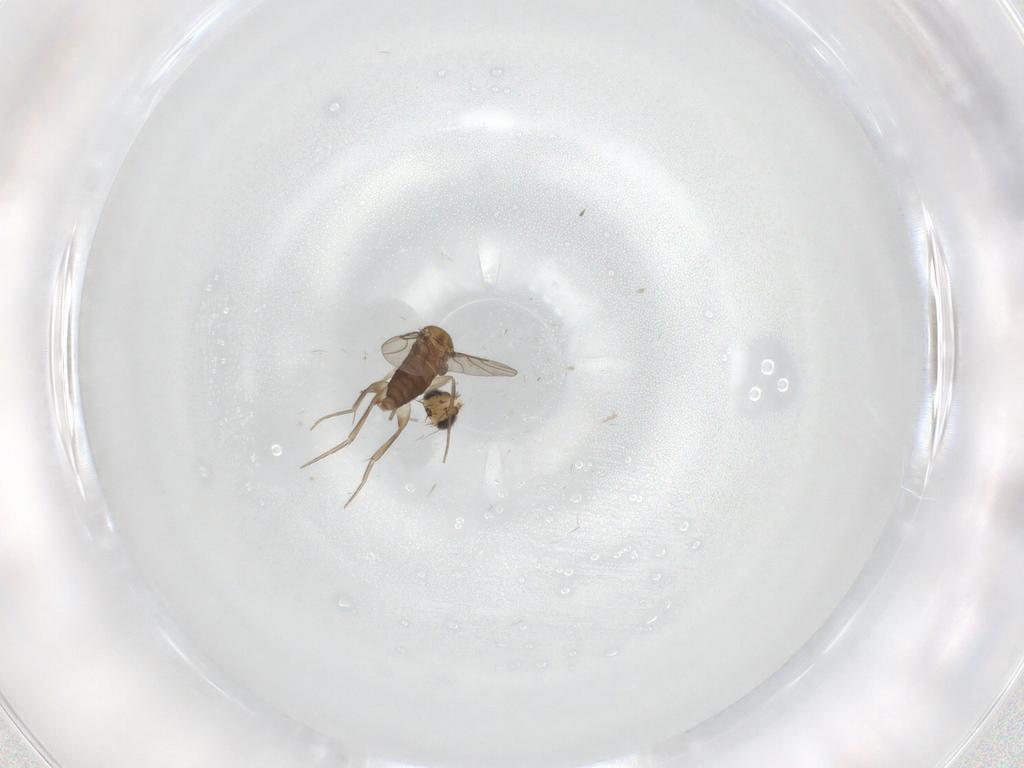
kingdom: Animalia
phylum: Arthropoda
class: Insecta
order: Diptera
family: Phoridae
